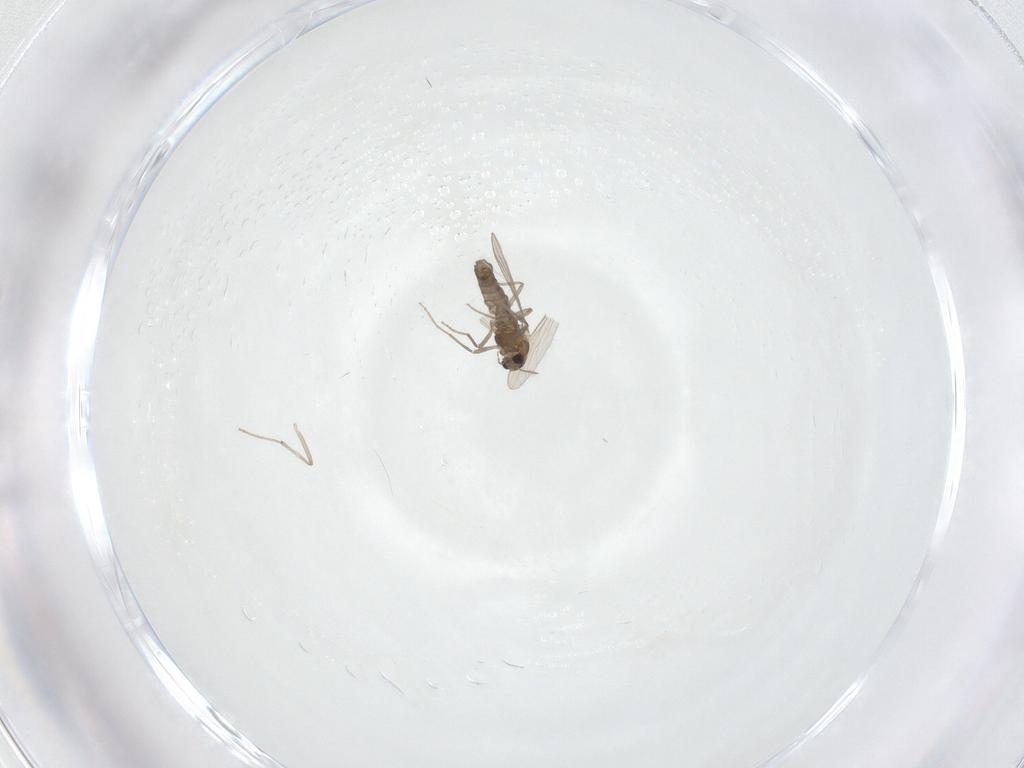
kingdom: Animalia
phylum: Arthropoda
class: Insecta
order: Diptera
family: Chironomidae
